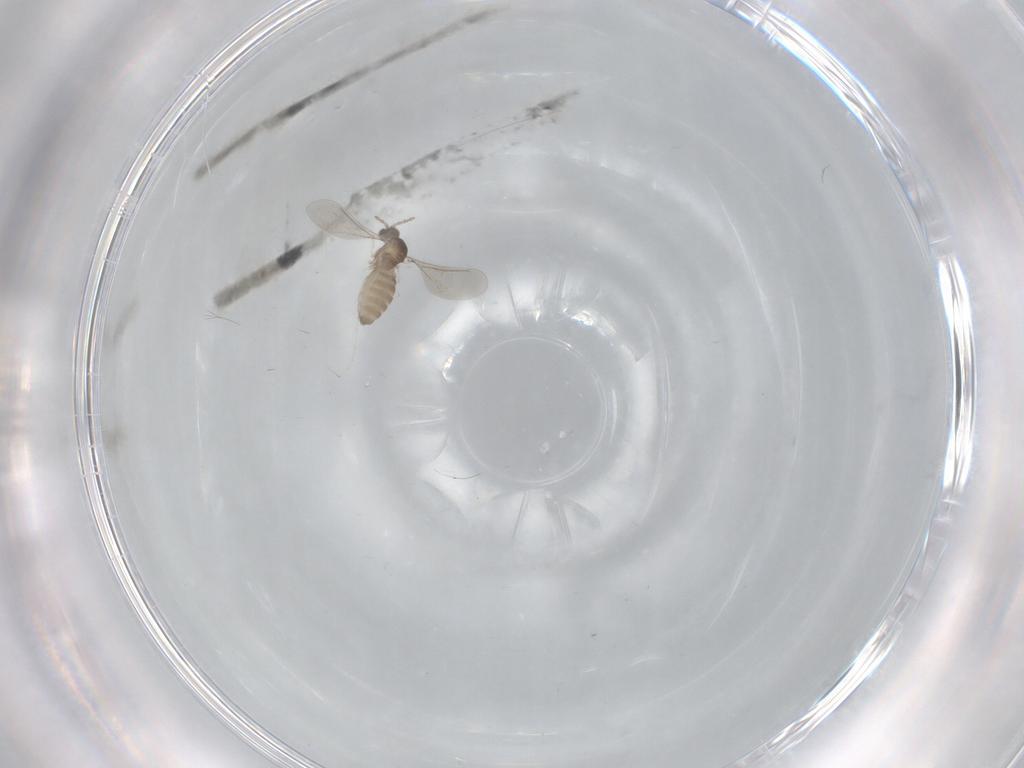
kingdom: Animalia
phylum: Arthropoda
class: Insecta
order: Diptera
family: Cecidomyiidae
